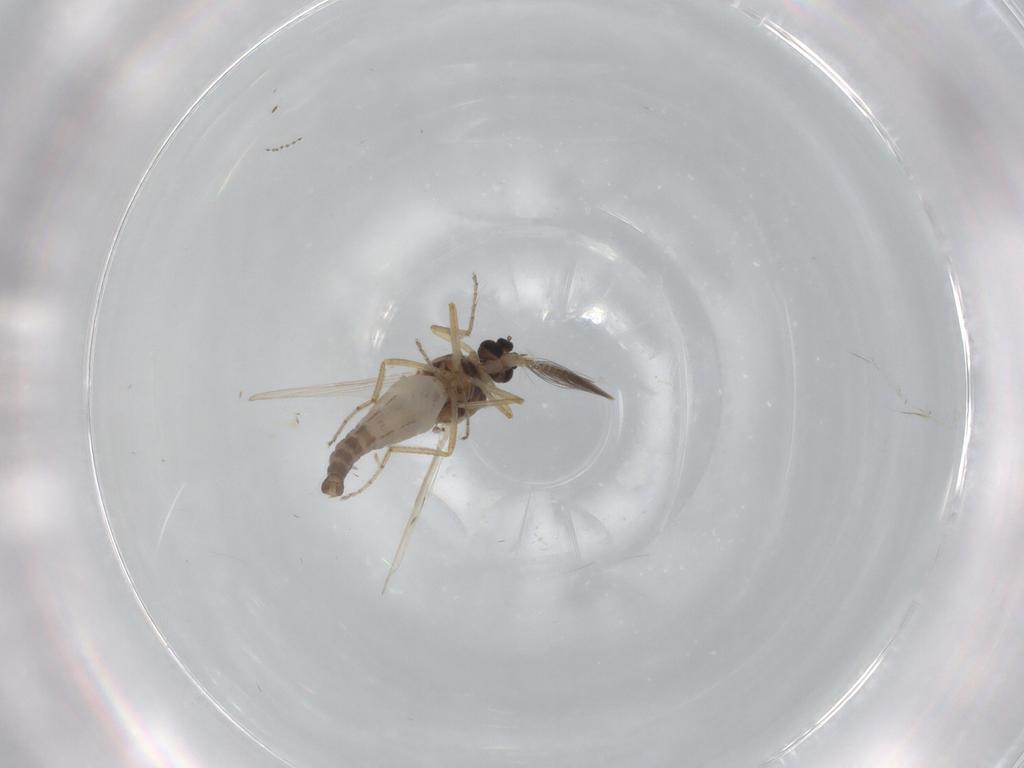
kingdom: Animalia
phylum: Arthropoda
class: Insecta
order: Diptera
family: Ceratopogonidae
